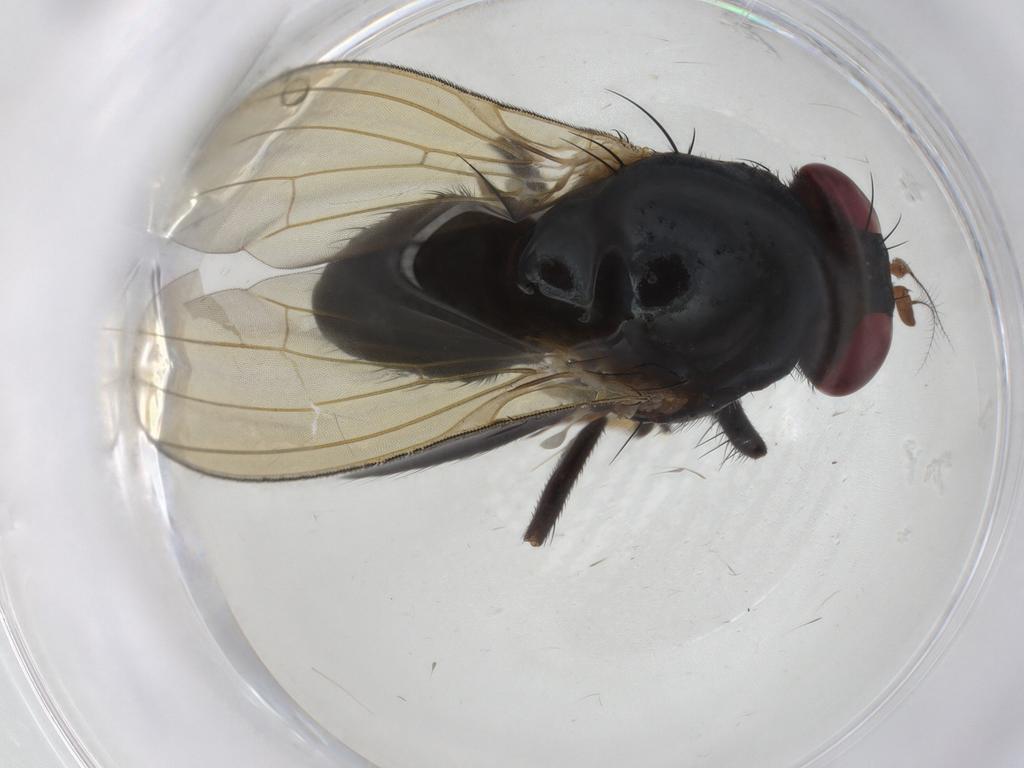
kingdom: Animalia
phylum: Arthropoda
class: Insecta
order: Diptera
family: Lauxaniidae
